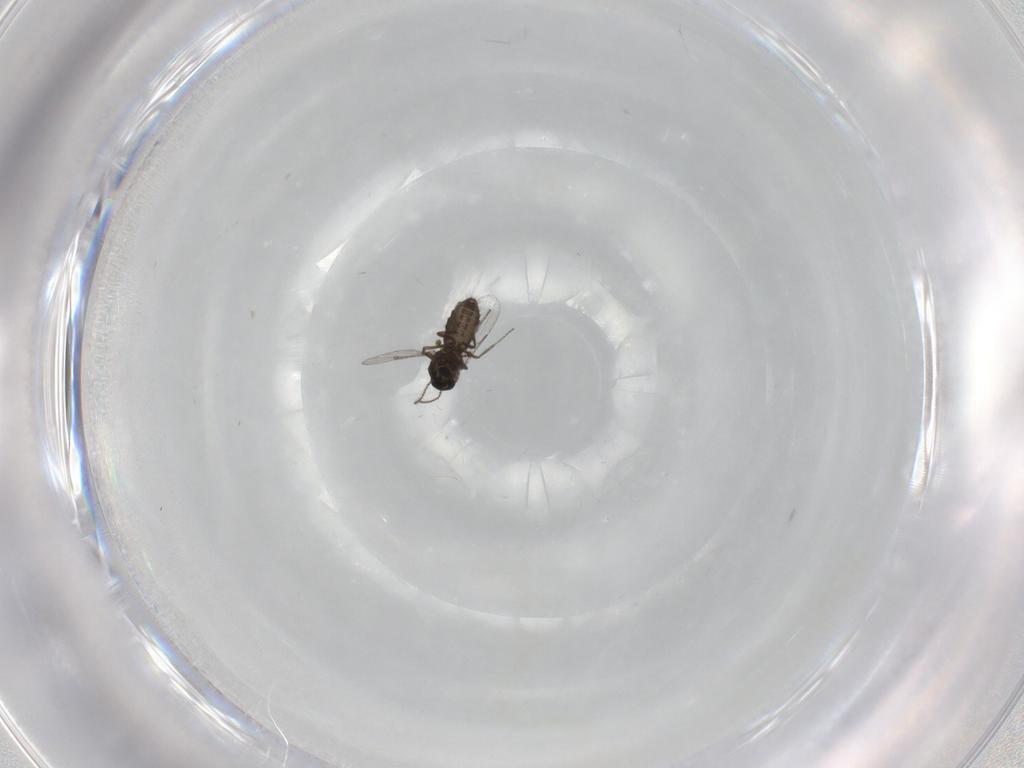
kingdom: Animalia
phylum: Arthropoda
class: Insecta
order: Diptera
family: Ceratopogonidae
